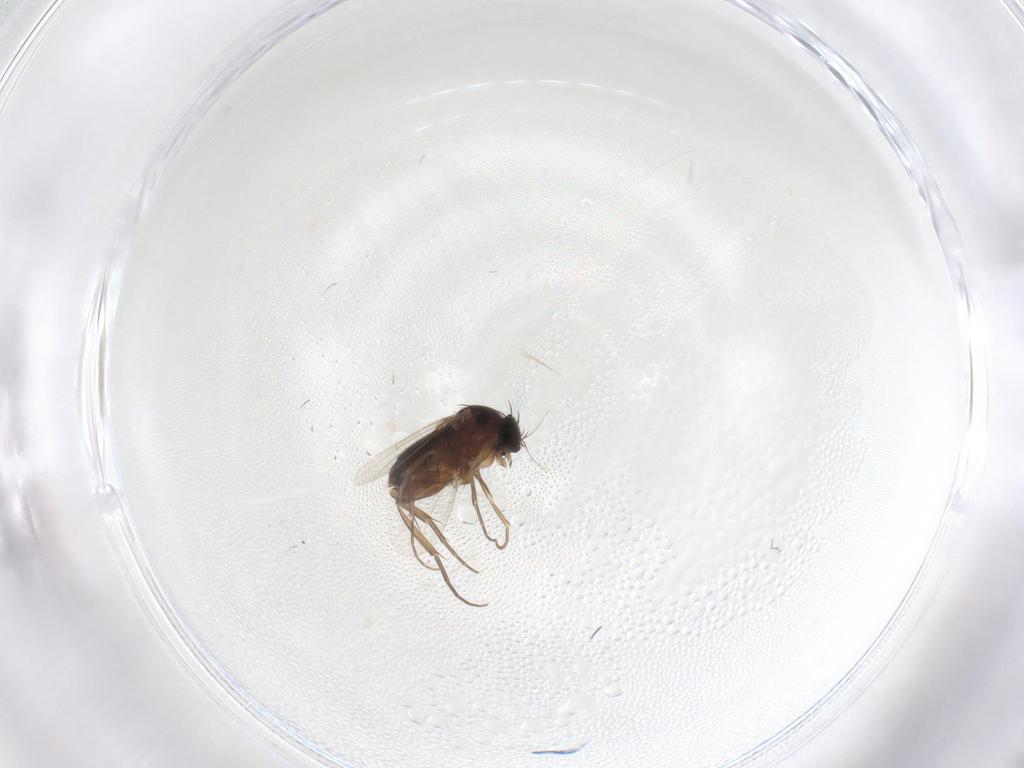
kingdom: Animalia
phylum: Arthropoda
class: Insecta
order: Diptera
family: Phoridae
